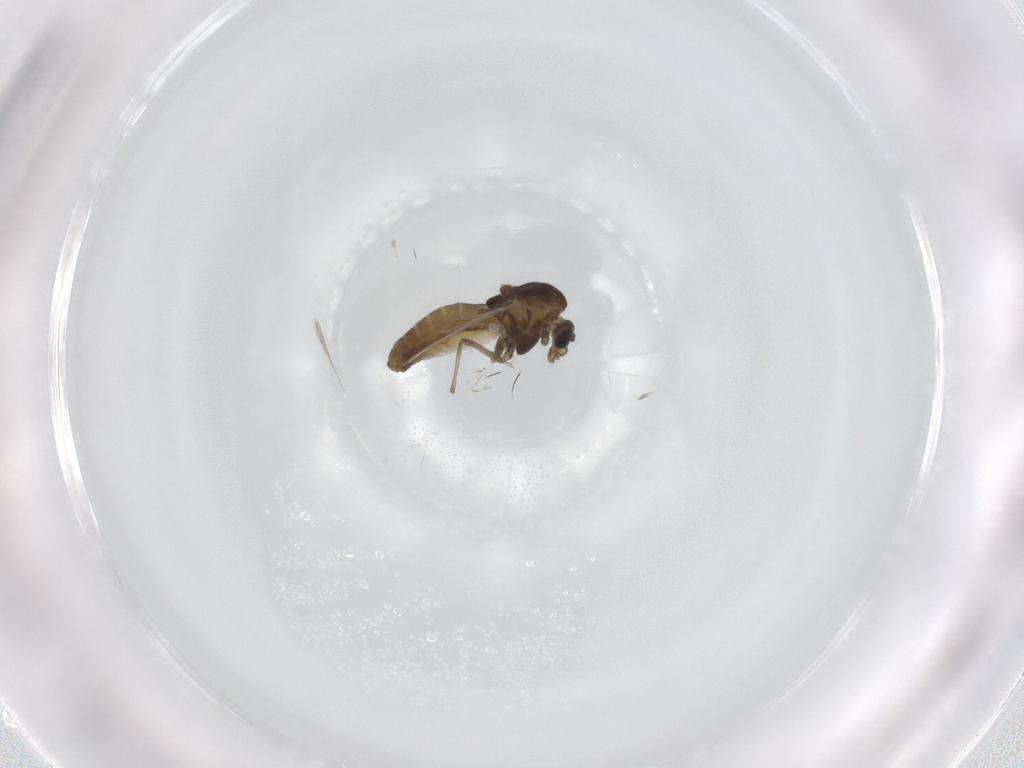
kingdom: Animalia
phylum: Arthropoda
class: Insecta
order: Diptera
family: Chironomidae
